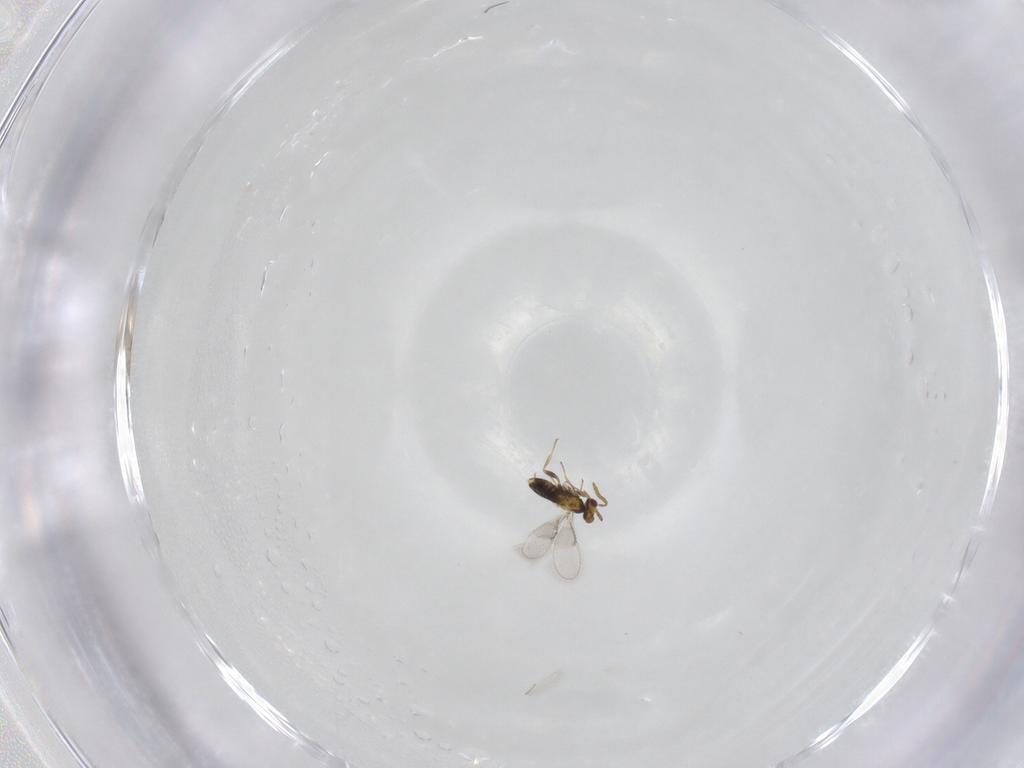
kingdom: Animalia
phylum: Arthropoda
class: Insecta
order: Hymenoptera
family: Aphelinidae
